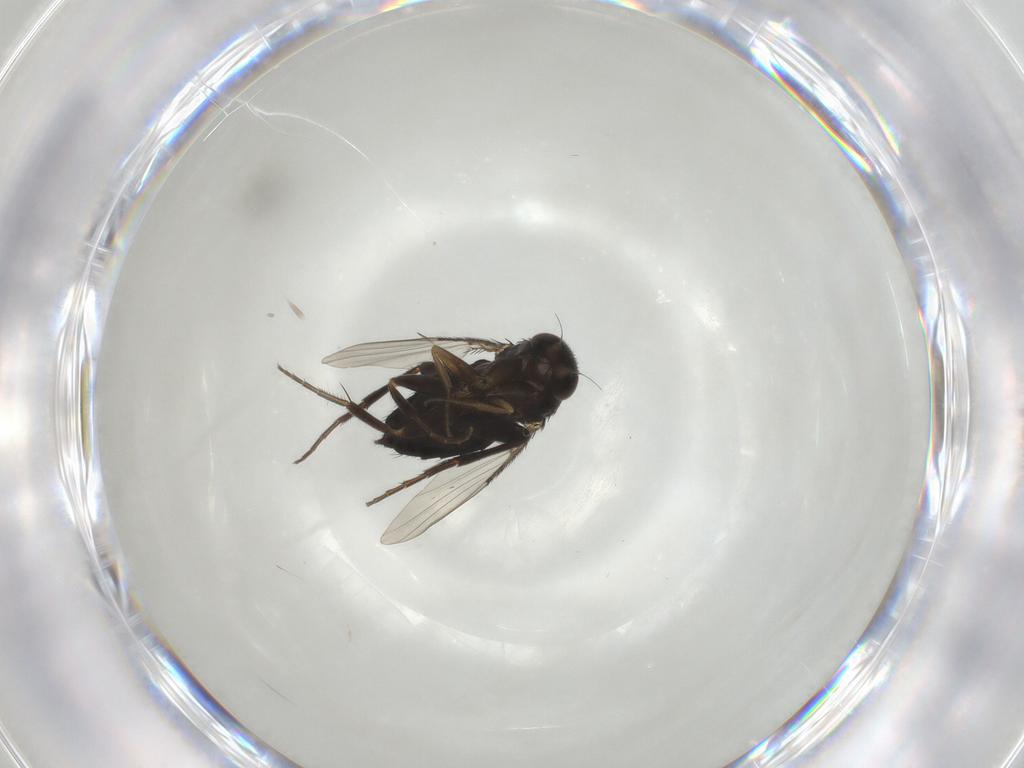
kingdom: Animalia
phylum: Arthropoda
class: Insecta
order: Diptera
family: Phoridae
